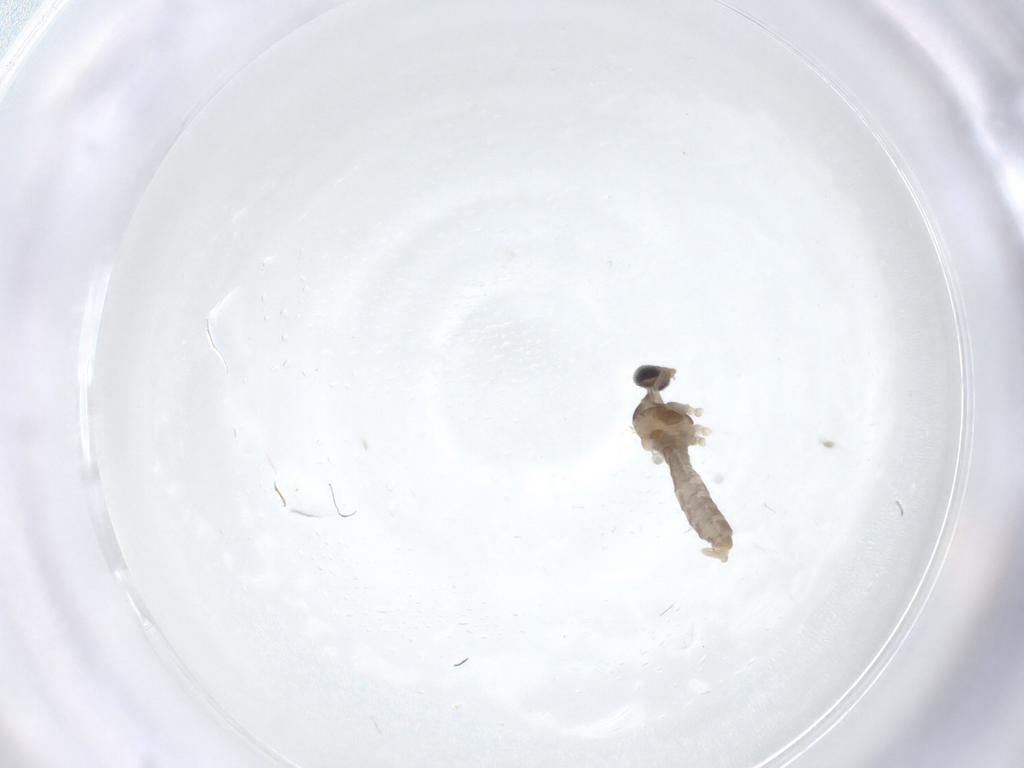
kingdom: Animalia
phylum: Arthropoda
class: Insecta
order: Diptera
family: Cecidomyiidae
